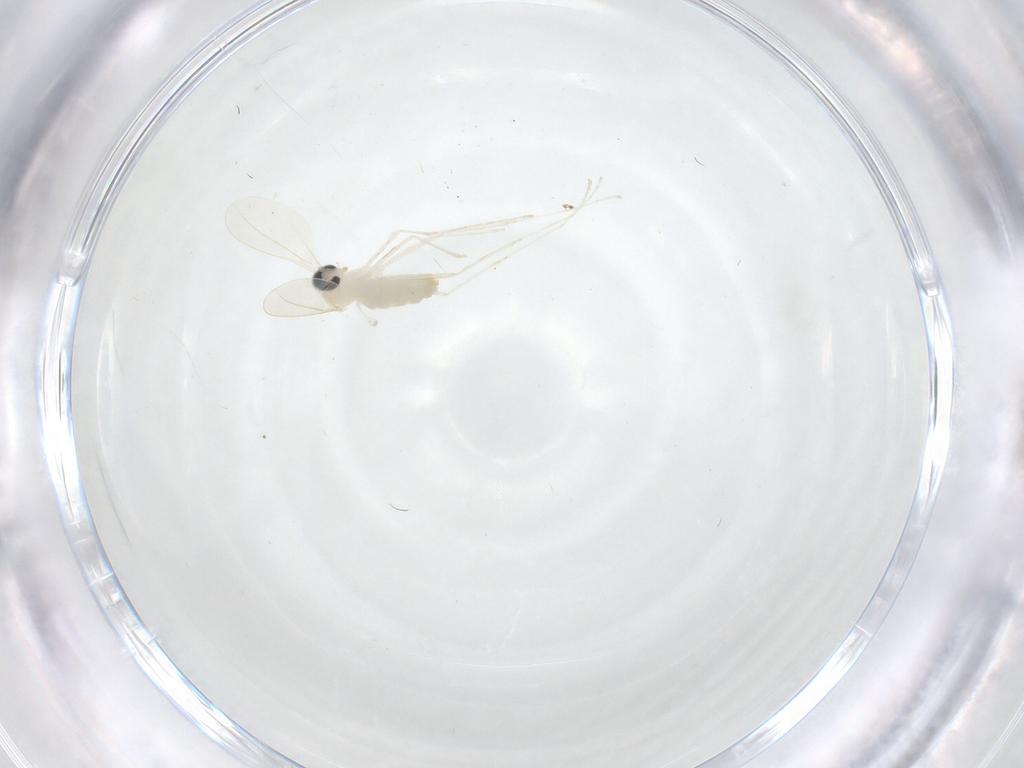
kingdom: Animalia
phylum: Arthropoda
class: Insecta
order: Diptera
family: Cecidomyiidae
